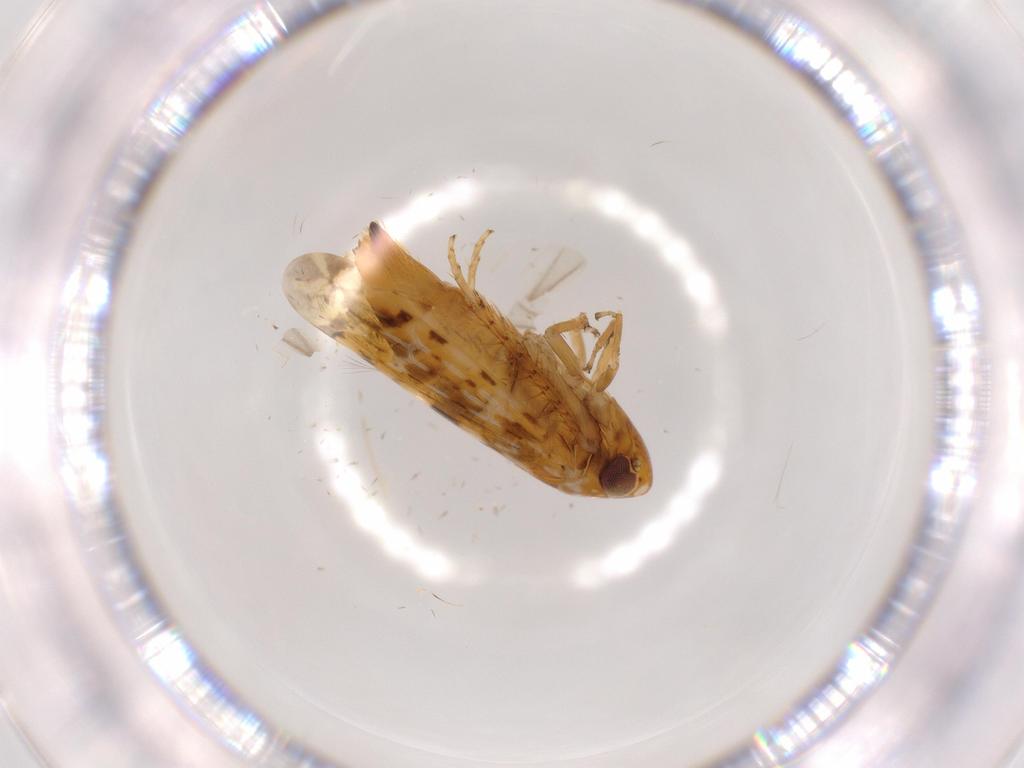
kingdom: Animalia
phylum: Arthropoda
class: Insecta
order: Hemiptera
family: Cicadellidae
